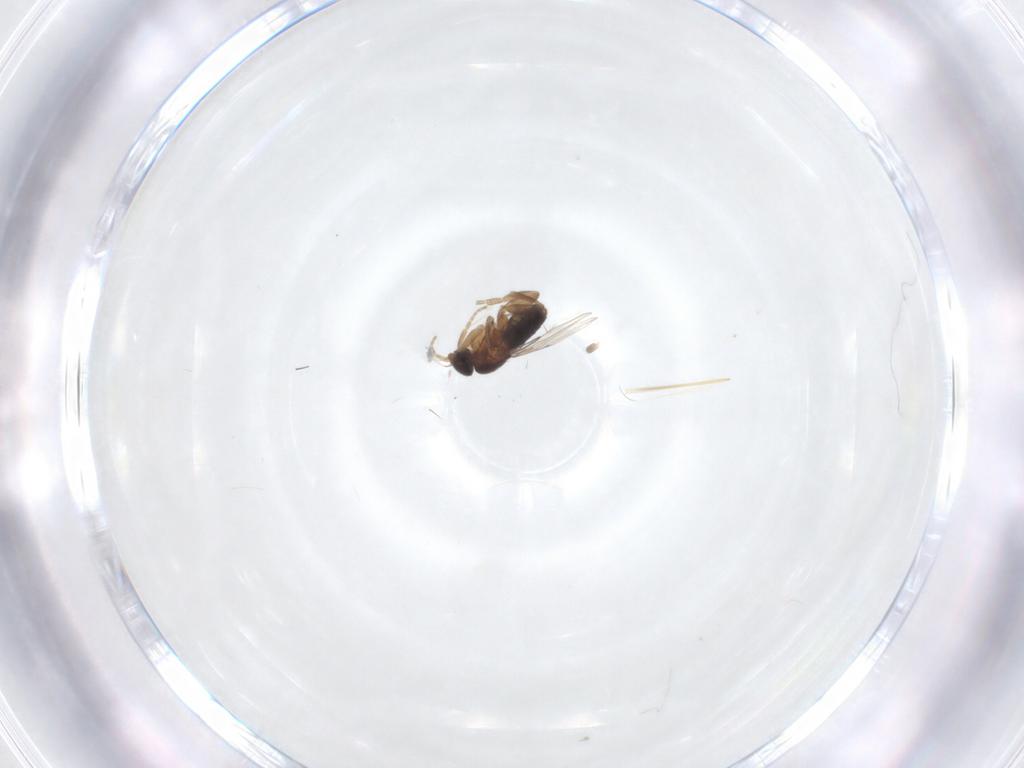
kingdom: Animalia
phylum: Arthropoda
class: Insecta
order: Diptera
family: Cecidomyiidae
